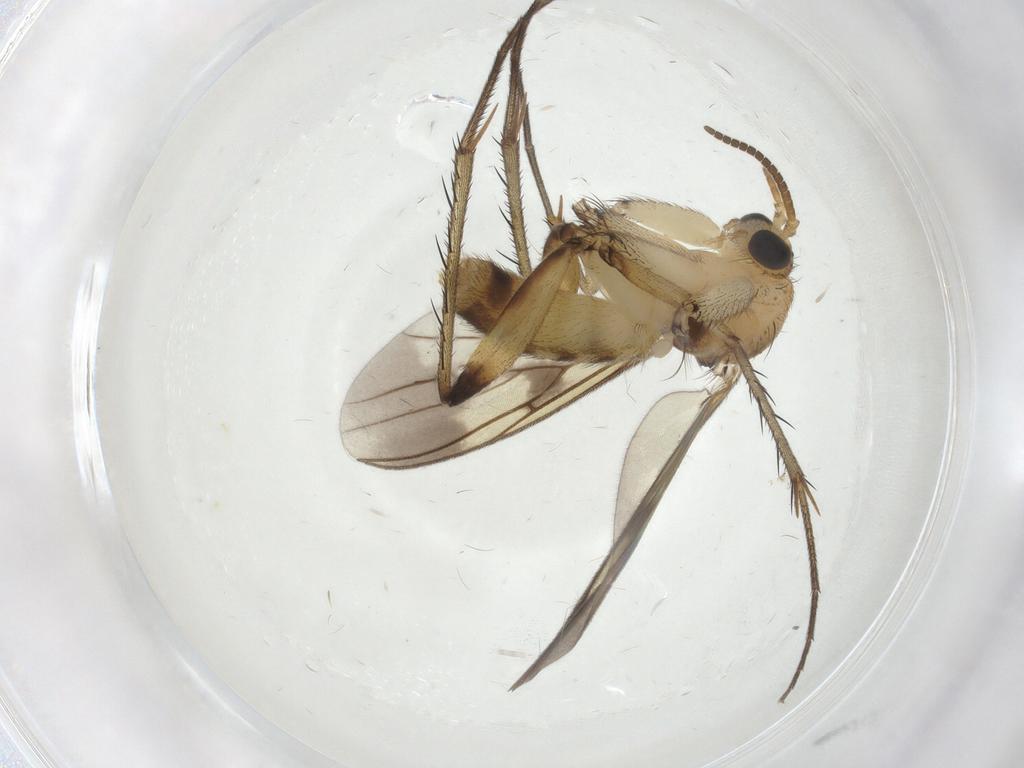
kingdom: Animalia
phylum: Arthropoda
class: Insecta
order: Diptera
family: Mycetophilidae
